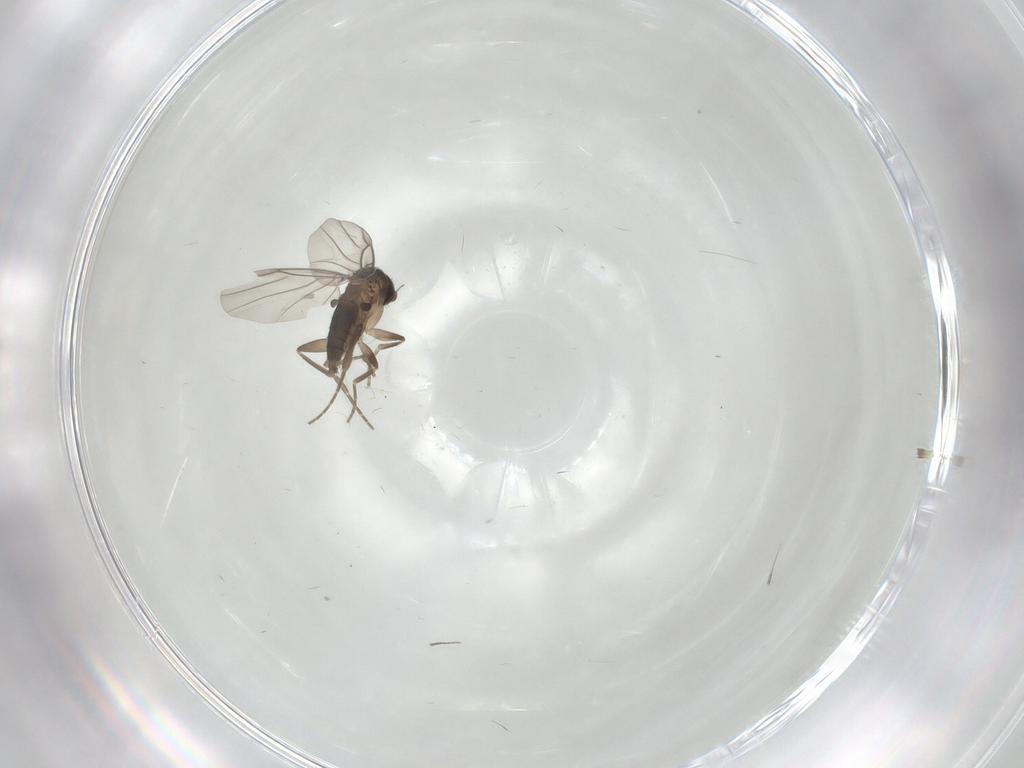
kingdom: Animalia
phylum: Arthropoda
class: Insecta
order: Diptera
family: Phoridae
